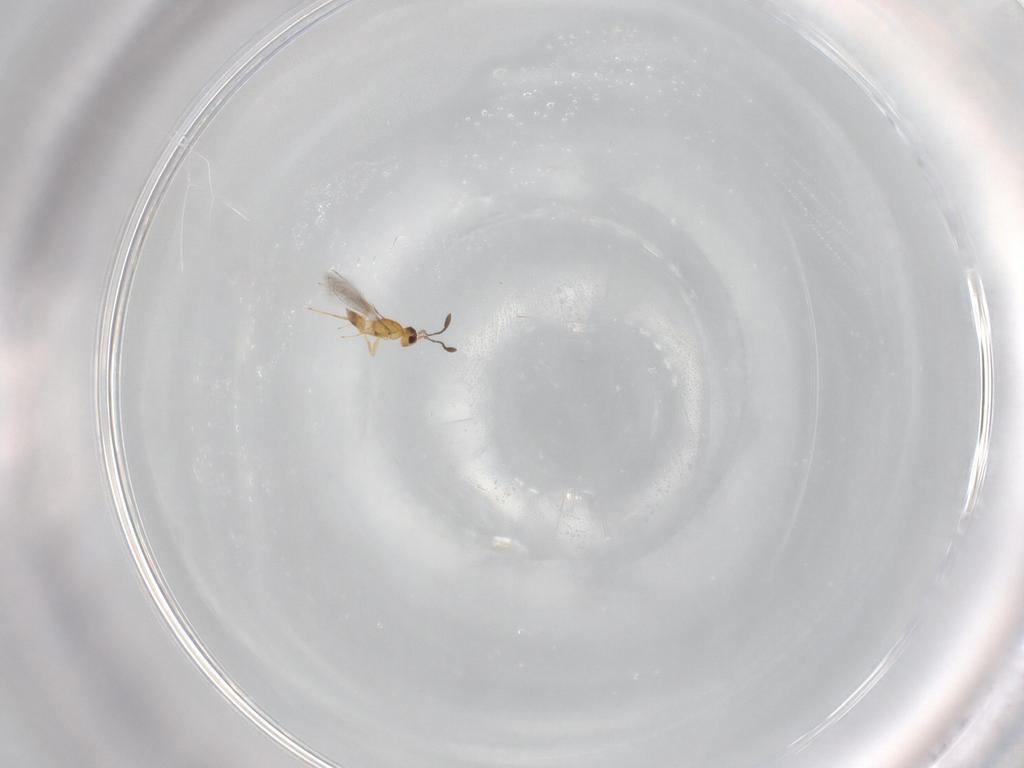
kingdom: Animalia
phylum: Arthropoda
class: Insecta
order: Hymenoptera
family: Mymaridae
